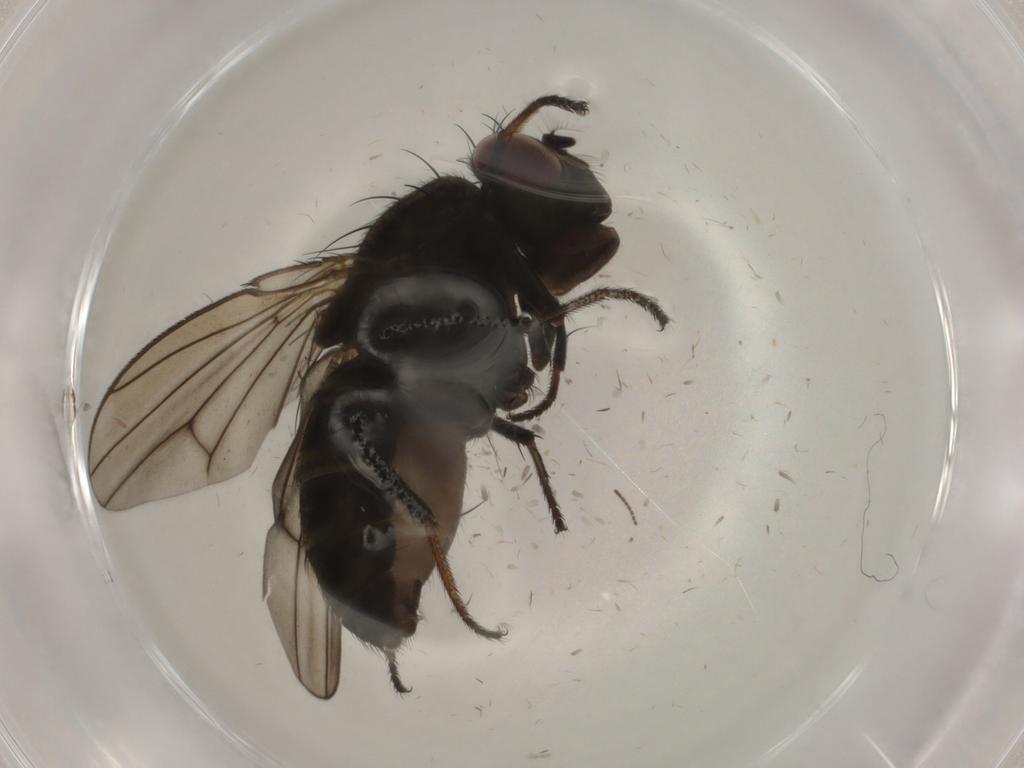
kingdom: Animalia
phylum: Arthropoda
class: Insecta
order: Diptera
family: Ephydridae
